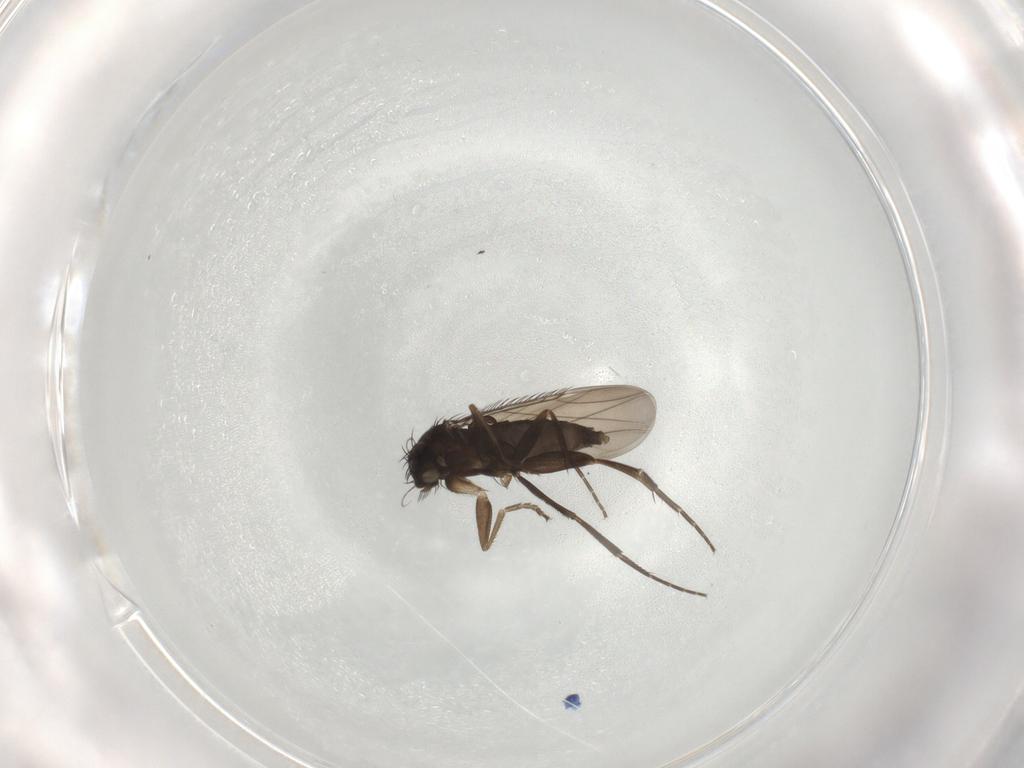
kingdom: Animalia
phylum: Arthropoda
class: Insecta
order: Diptera
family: Phoridae
